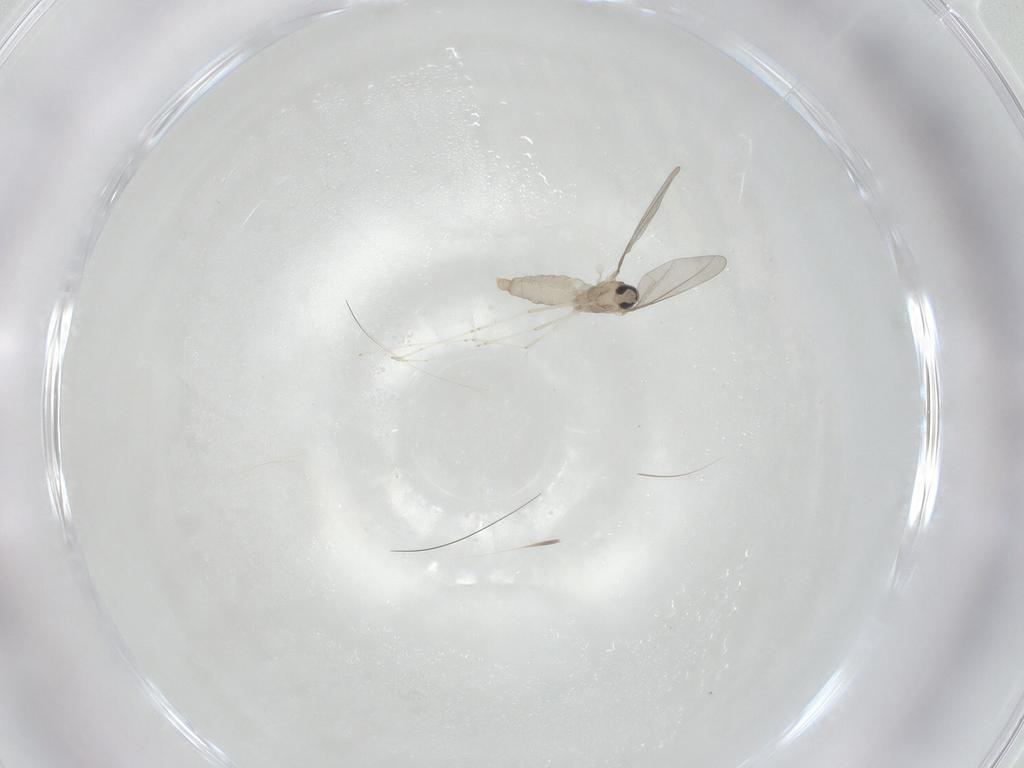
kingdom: Animalia
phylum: Arthropoda
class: Insecta
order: Diptera
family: Cecidomyiidae
